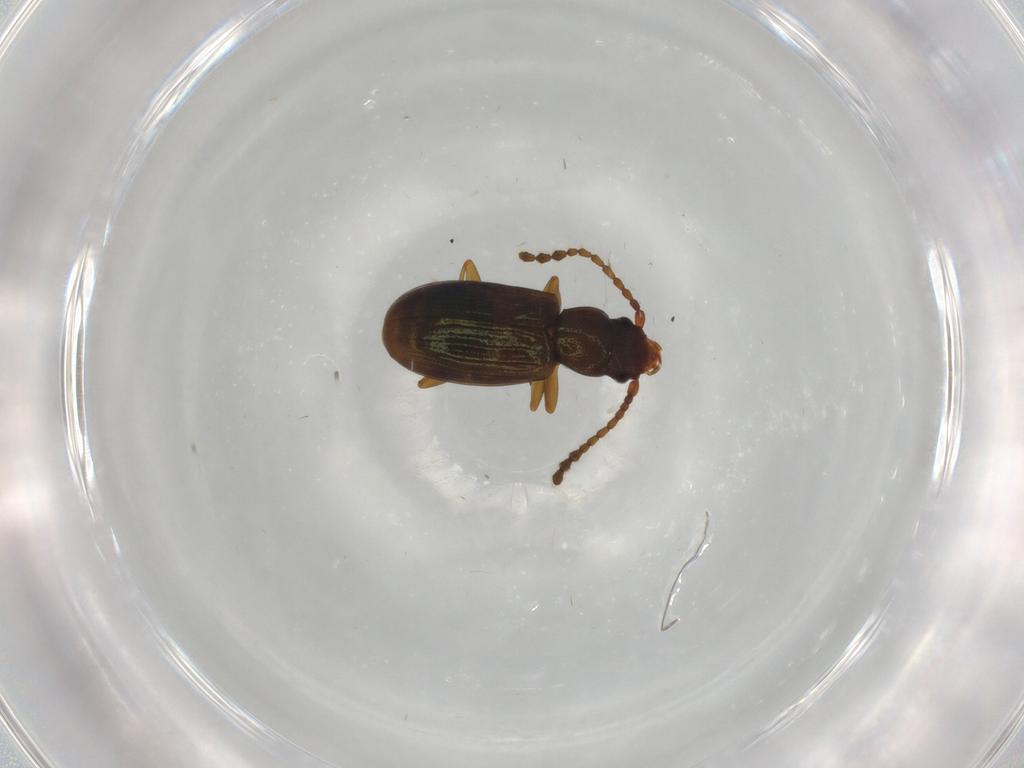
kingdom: Animalia
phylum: Arthropoda
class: Insecta
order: Coleoptera
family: Laemophloeidae
